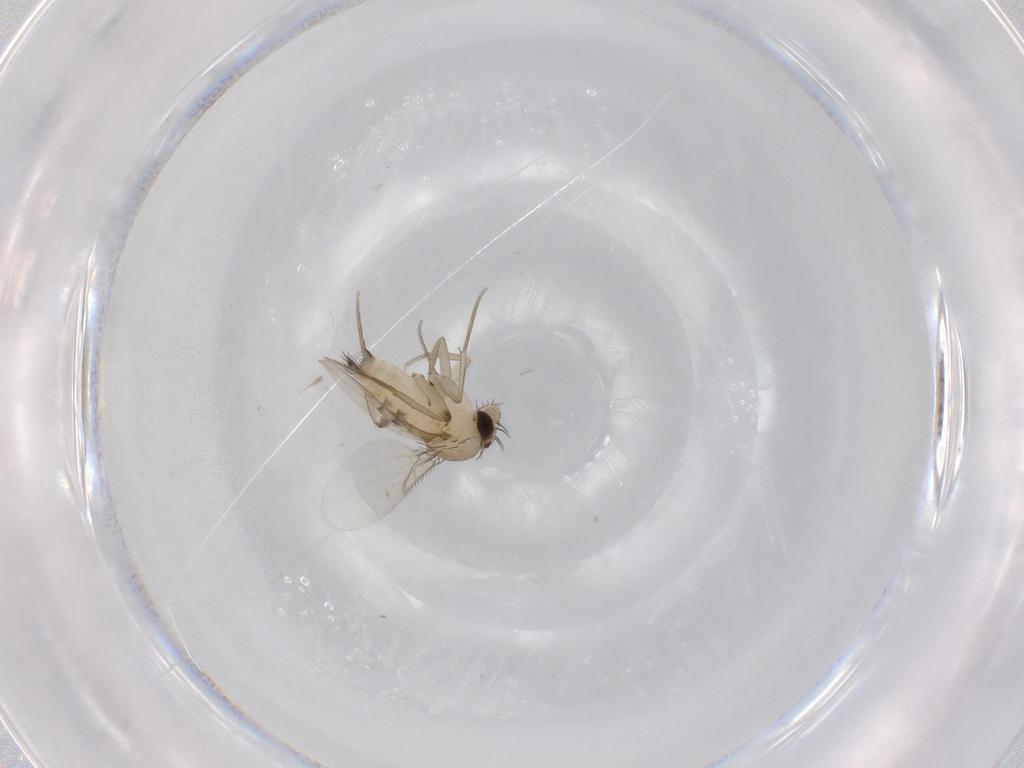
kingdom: Animalia
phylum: Arthropoda
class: Insecta
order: Diptera
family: Phoridae
